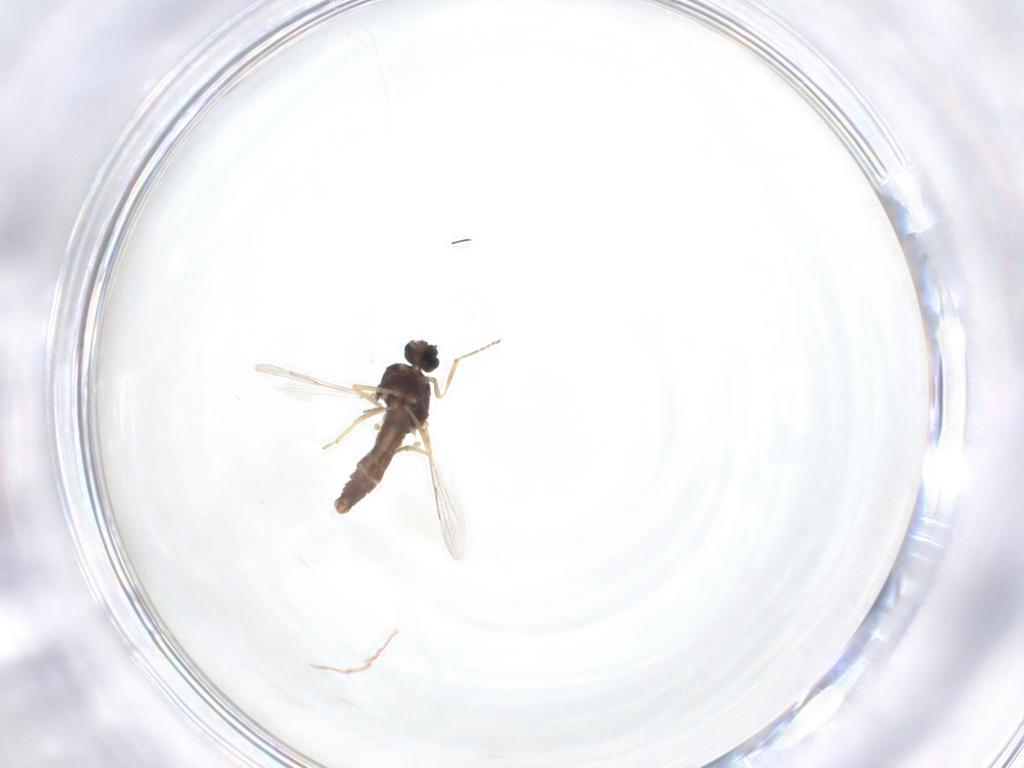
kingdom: Animalia
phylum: Arthropoda
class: Insecta
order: Diptera
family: Ceratopogonidae
